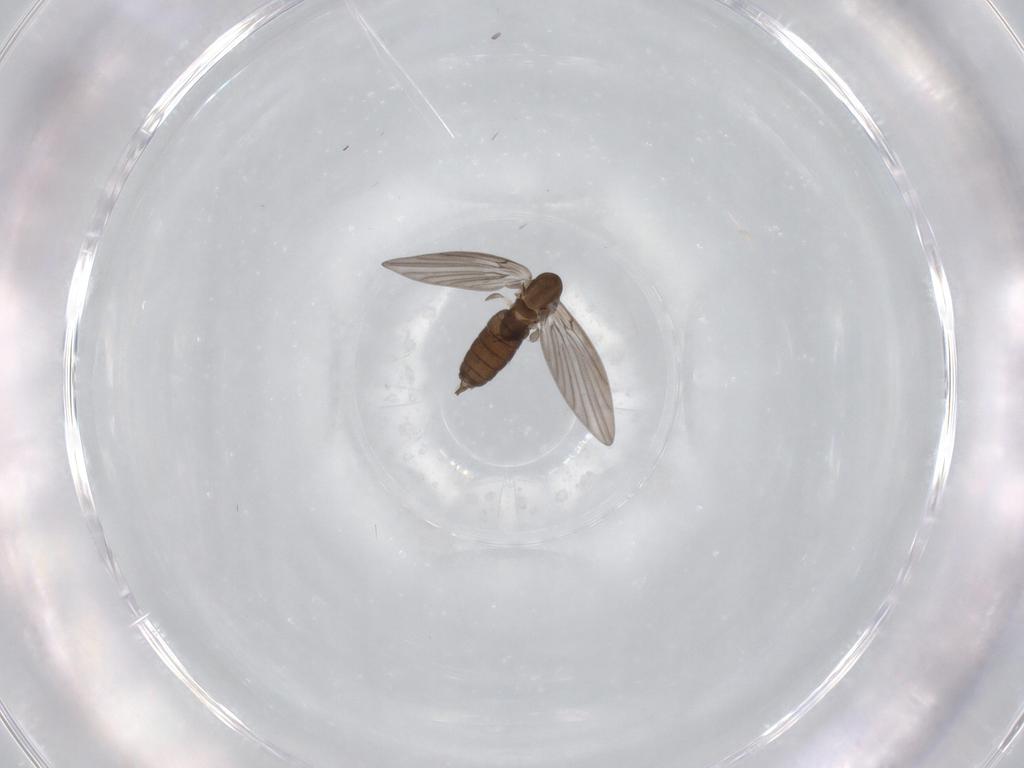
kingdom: Animalia
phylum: Arthropoda
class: Insecta
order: Diptera
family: Psychodidae
